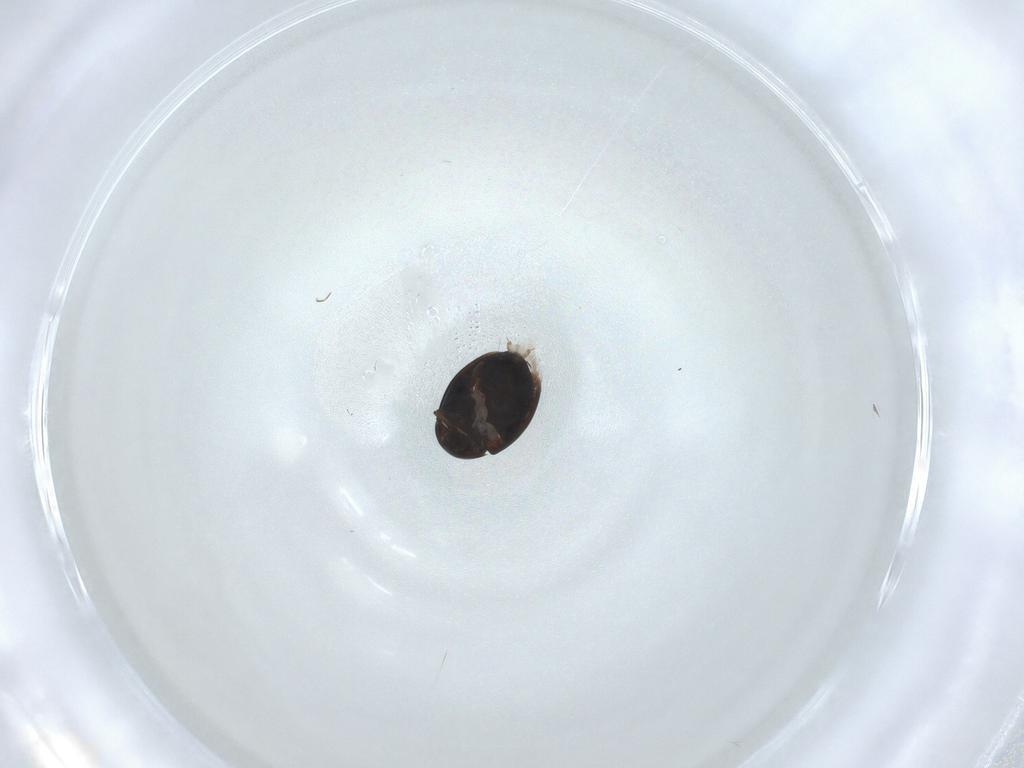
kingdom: Animalia
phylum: Arthropoda
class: Insecta
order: Coleoptera
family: Corylophidae
